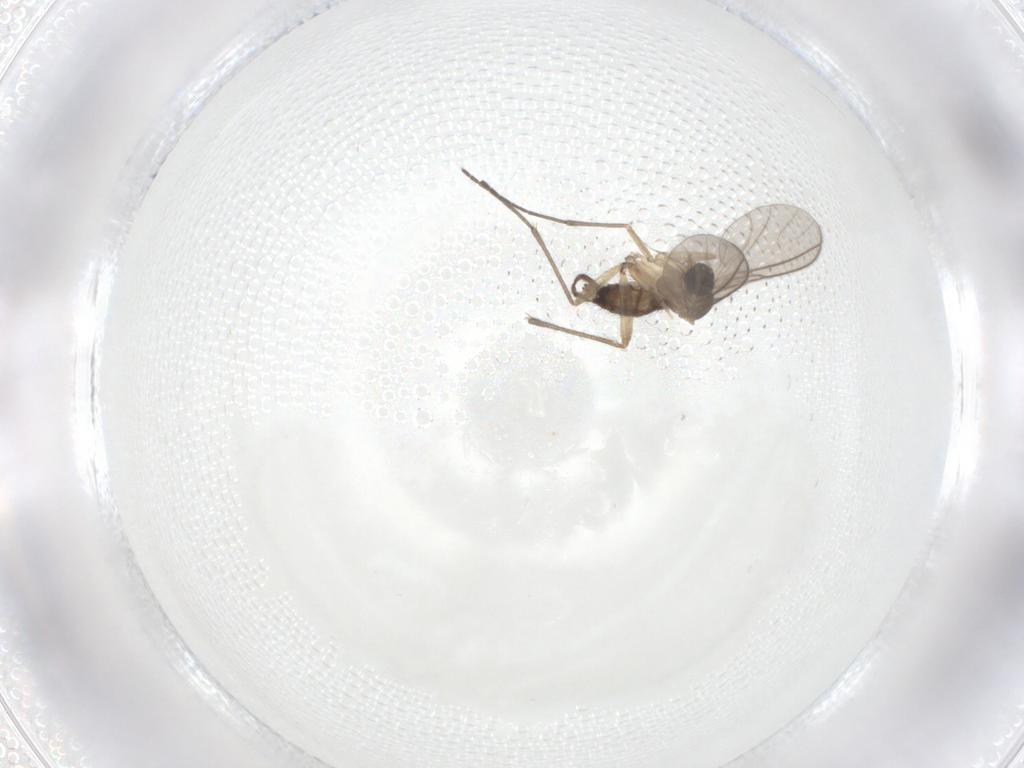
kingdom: Animalia
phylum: Arthropoda
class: Insecta
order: Diptera
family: Sciaridae
